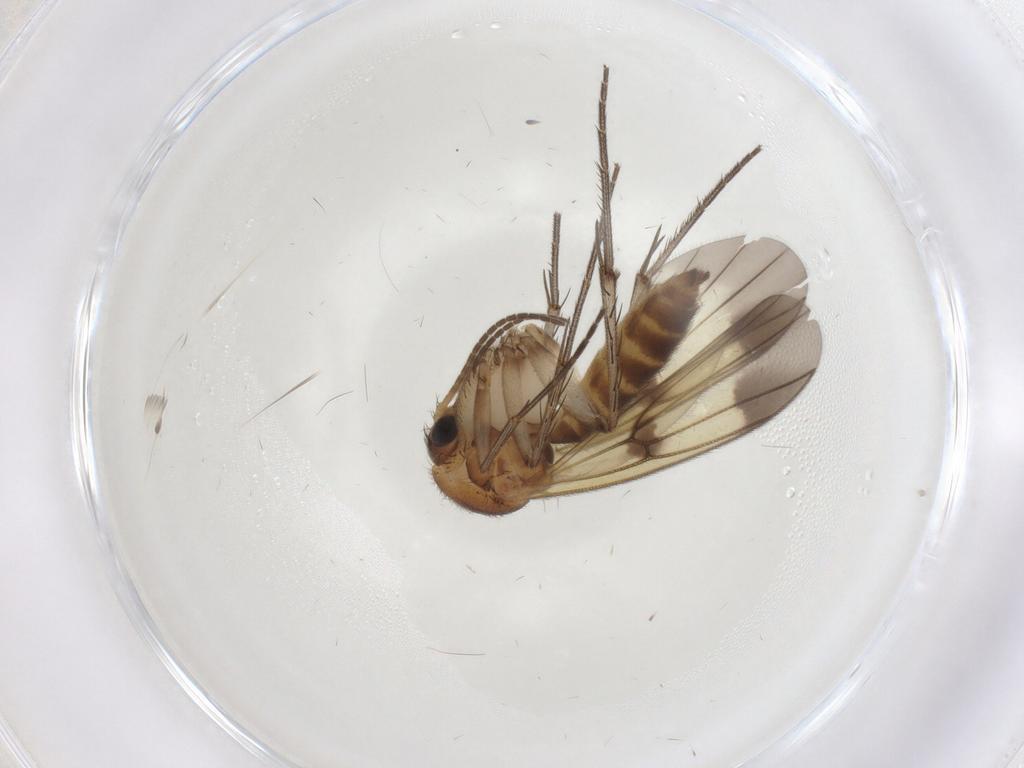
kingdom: Animalia
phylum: Arthropoda
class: Insecta
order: Diptera
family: Mycetophilidae
